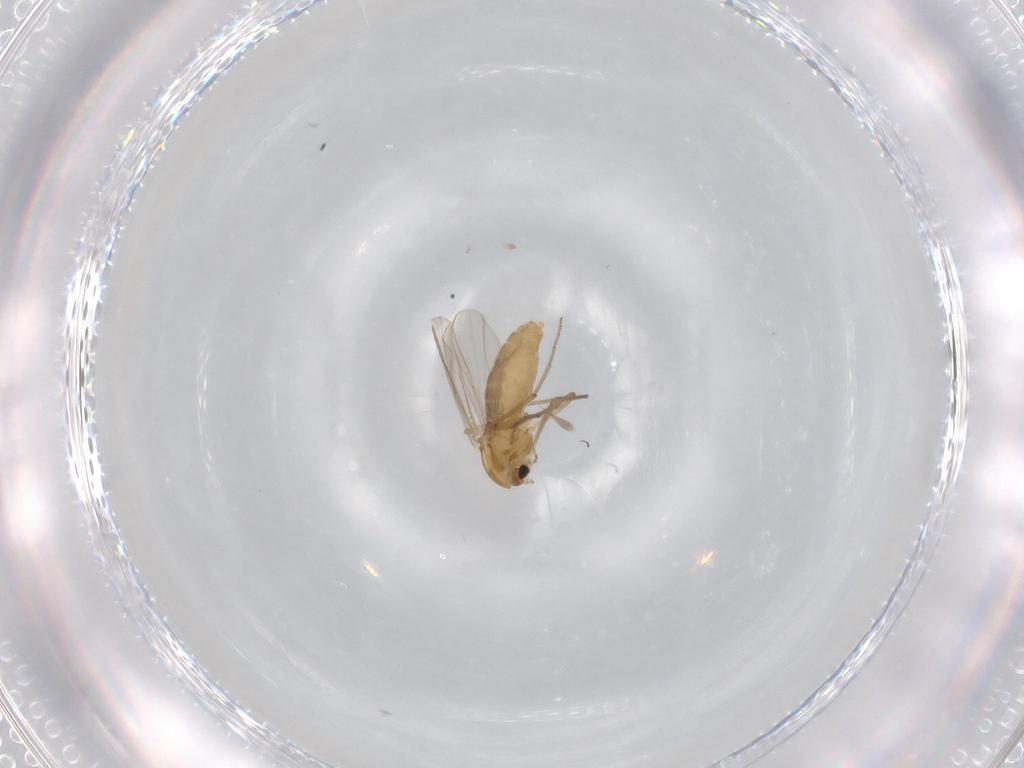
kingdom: Animalia
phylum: Arthropoda
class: Insecta
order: Diptera
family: Chironomidae
